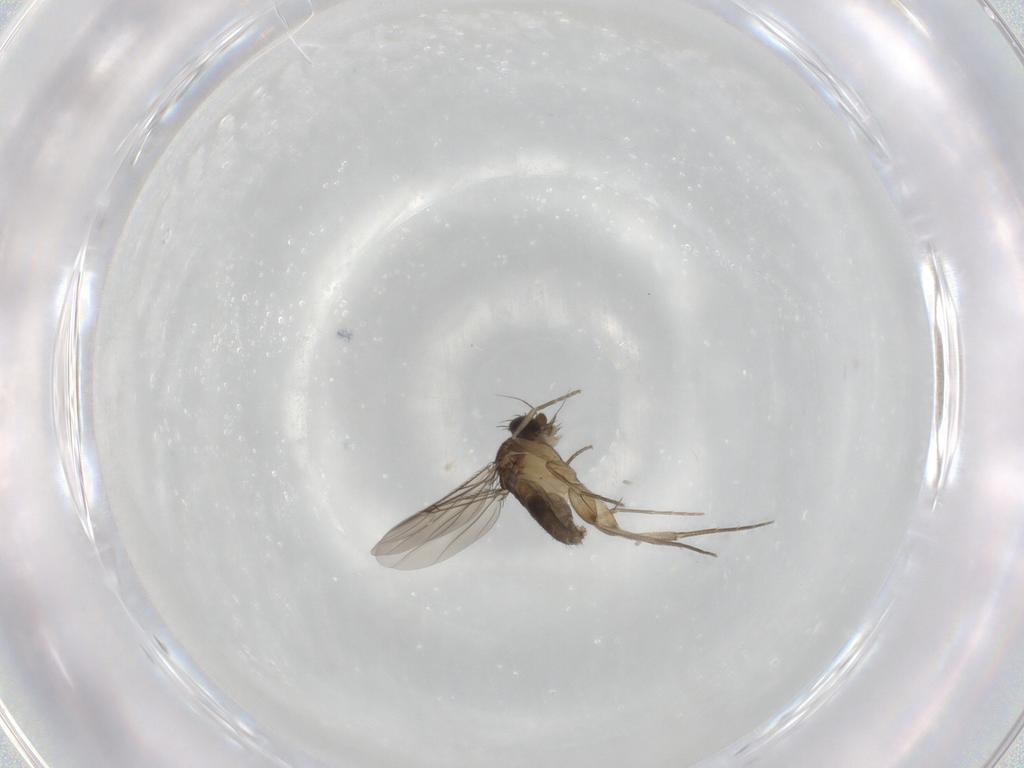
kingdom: Animalia
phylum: Arthropoda
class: Insecta
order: Diptera
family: Phoridae
